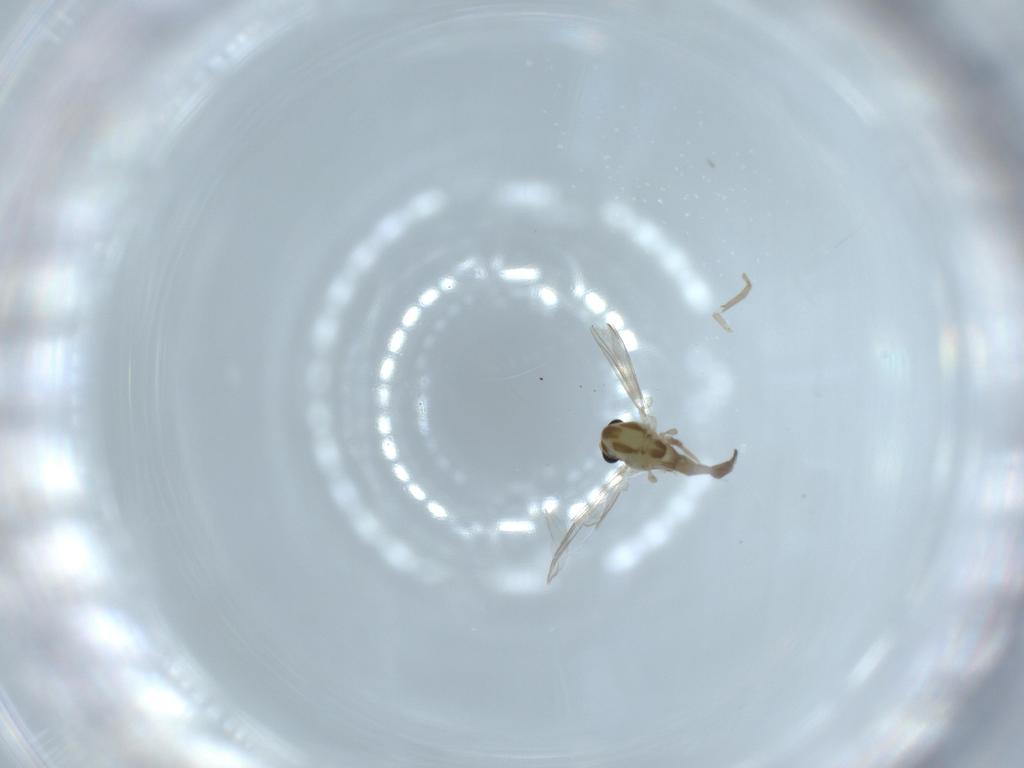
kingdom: Animalia
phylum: Arthropoda
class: Insecta
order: Diptera
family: Chironomidae
